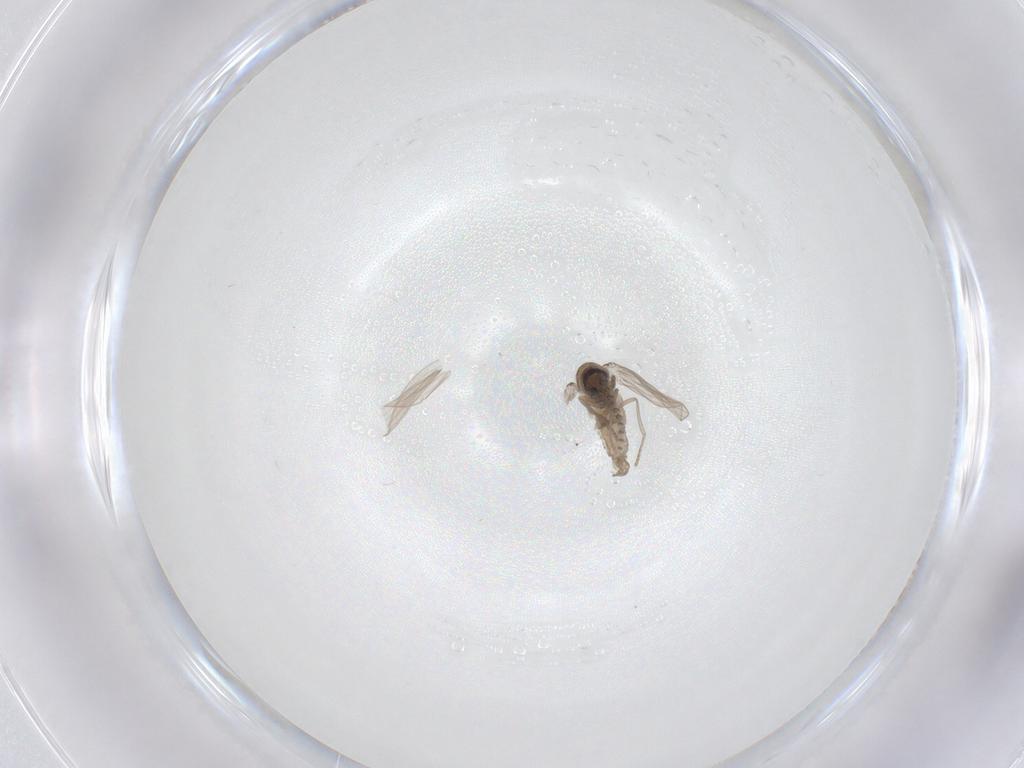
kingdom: Animalia
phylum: Arthropoda
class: Insecta
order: Diptera
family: Psychodidae
